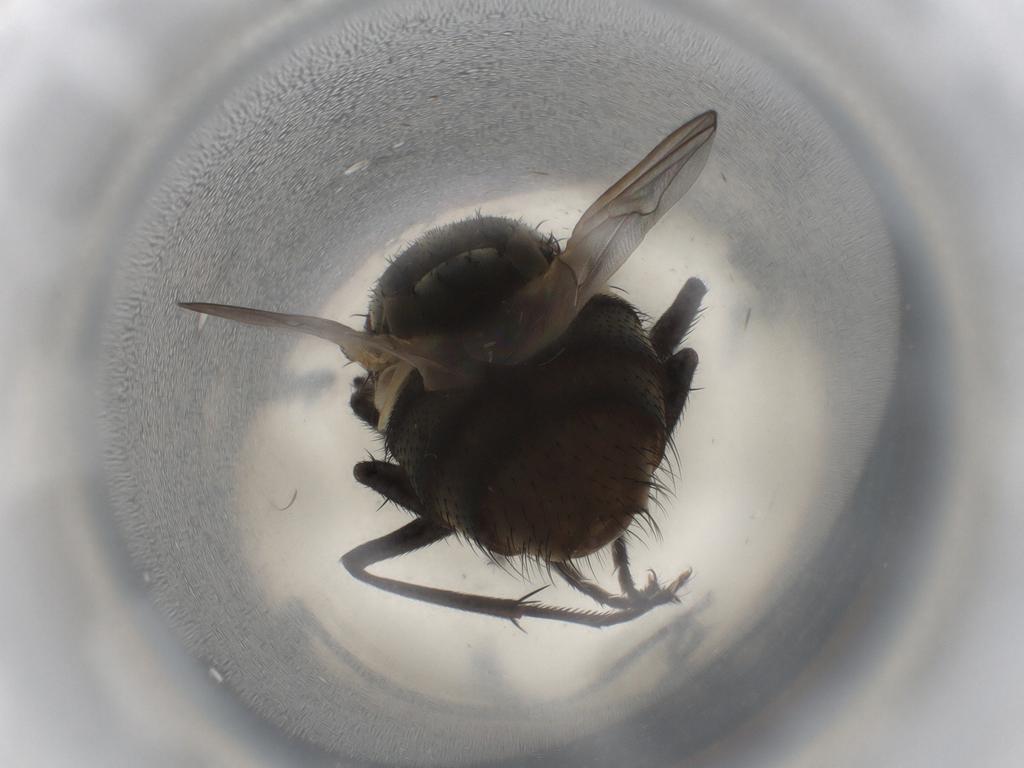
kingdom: Animalia
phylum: Arthropoda
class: Insecta
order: Diptera
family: Muscidae
